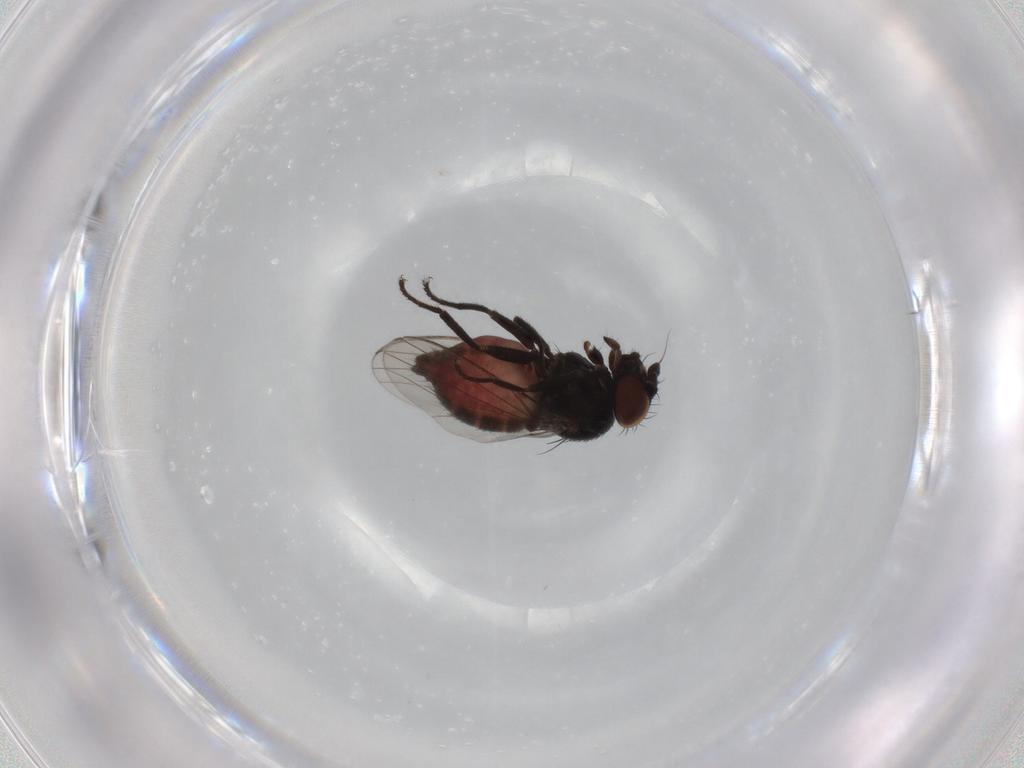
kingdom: Animalia
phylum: Arthropoda
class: Insecta
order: Diptera
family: Milichiidae
